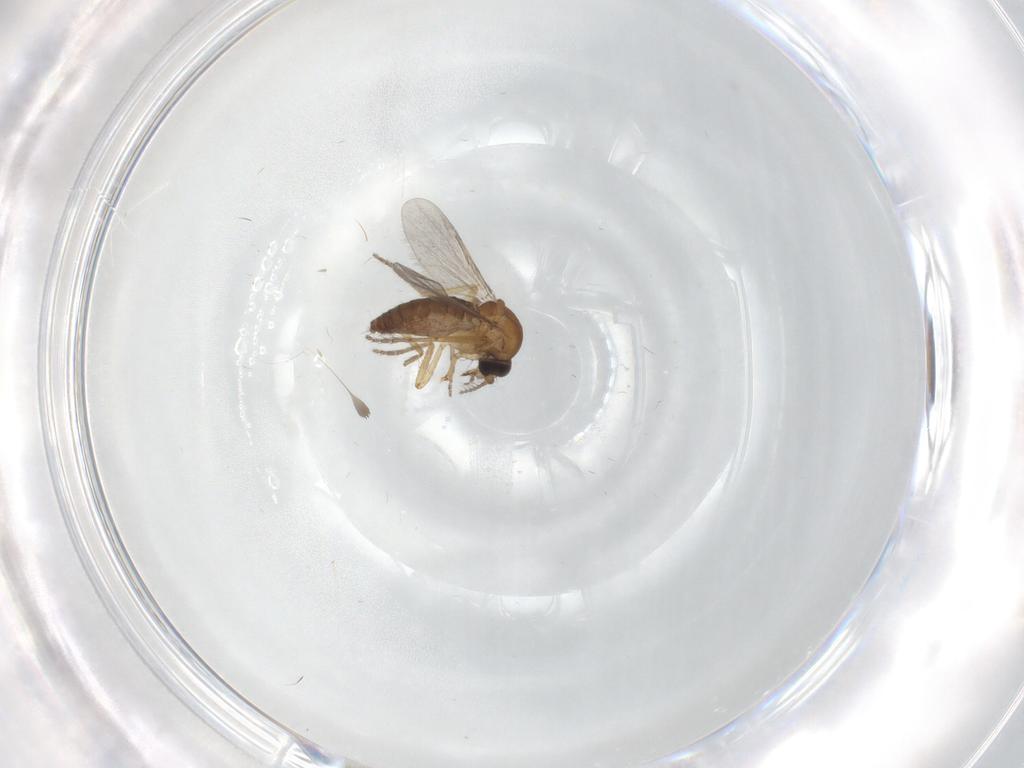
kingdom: Animalia
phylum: Arthropoda
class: Insecta
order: Diptera
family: Ceratopogonidae
